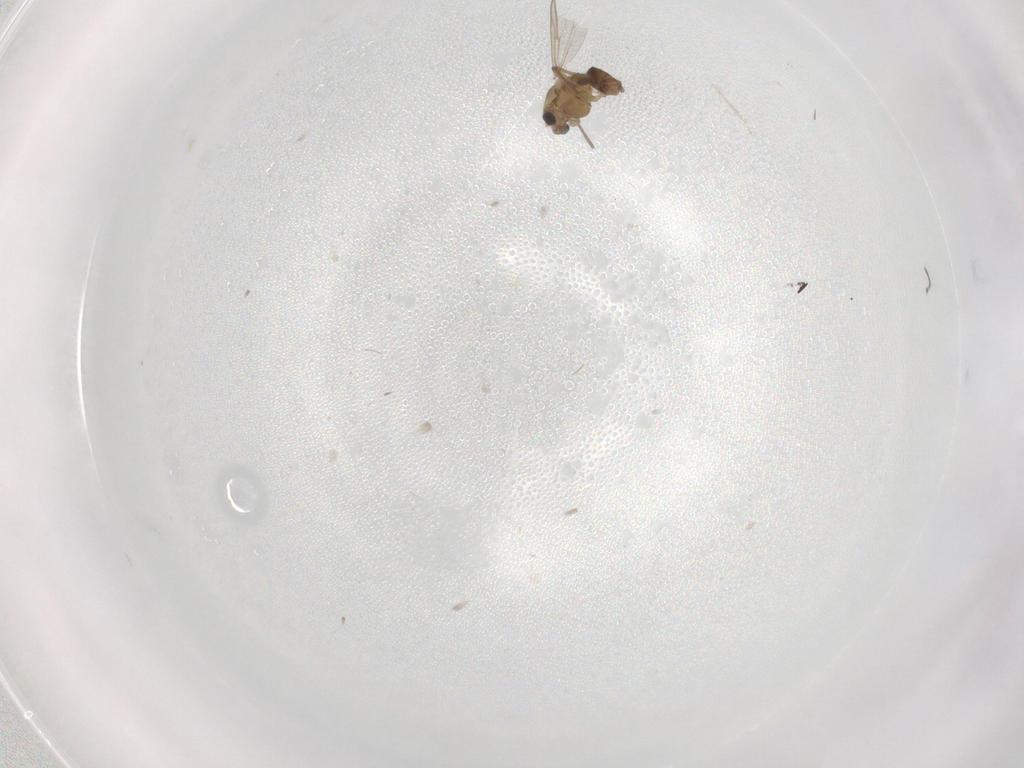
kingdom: Animalia
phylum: Arthropoda
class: Insecta
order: Diptera
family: Chironomidae
